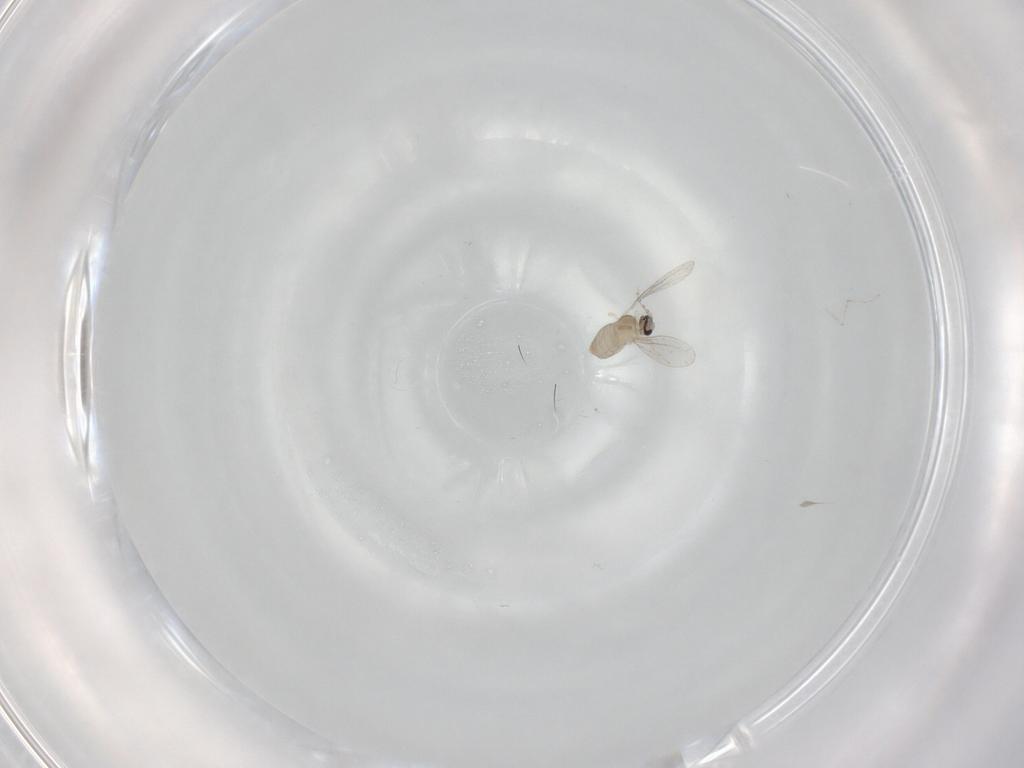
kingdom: Animalia
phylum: Arthropoda
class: Insecta
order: Diptera
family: Cecidomyiidae
